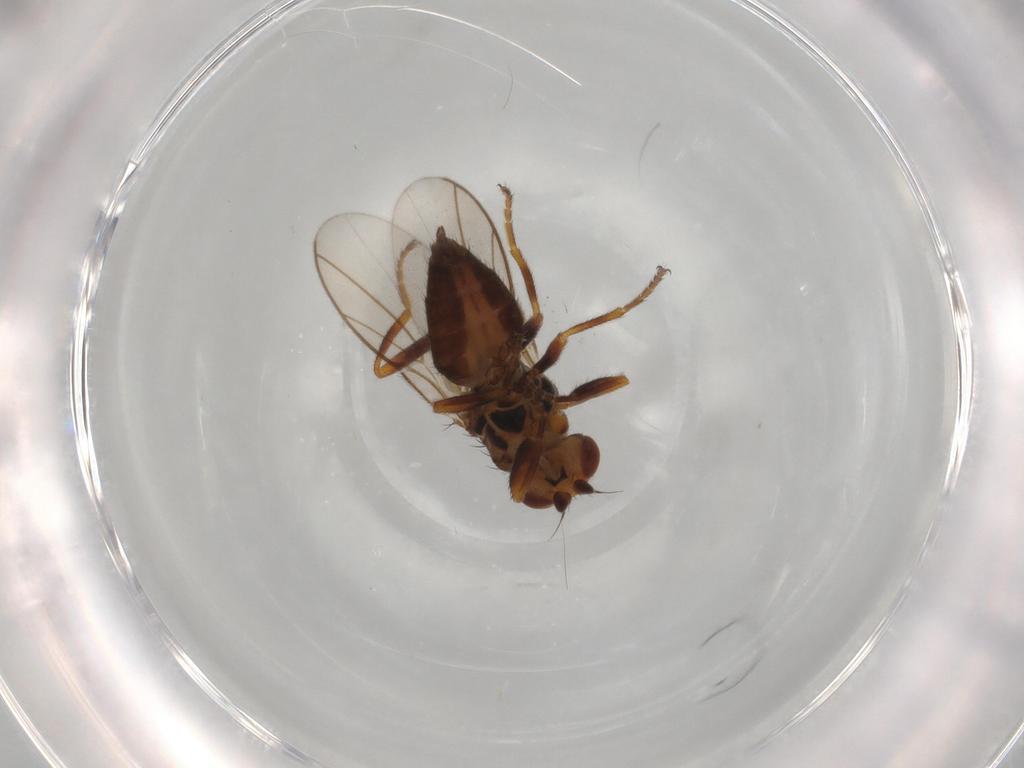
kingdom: Animalia
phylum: Arthropoda
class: Insecta
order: Diptera
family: Chloropidae
